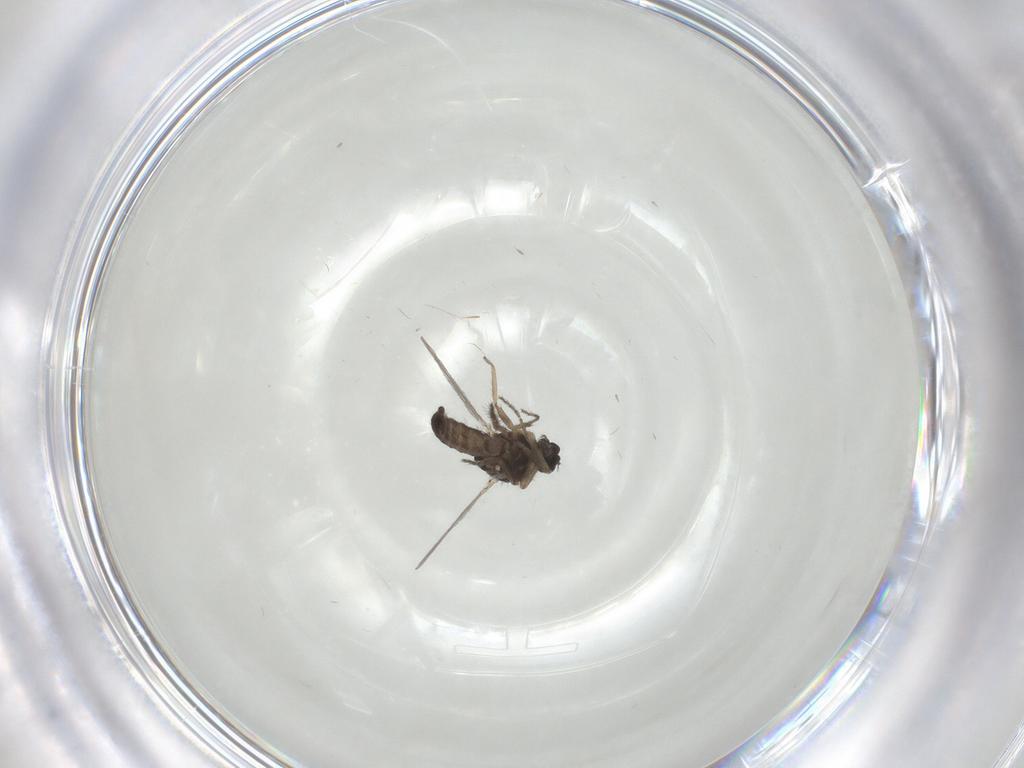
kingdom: Animalia
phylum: Arthropoda
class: Insecta
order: Diptera
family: Ceratopogonidae
